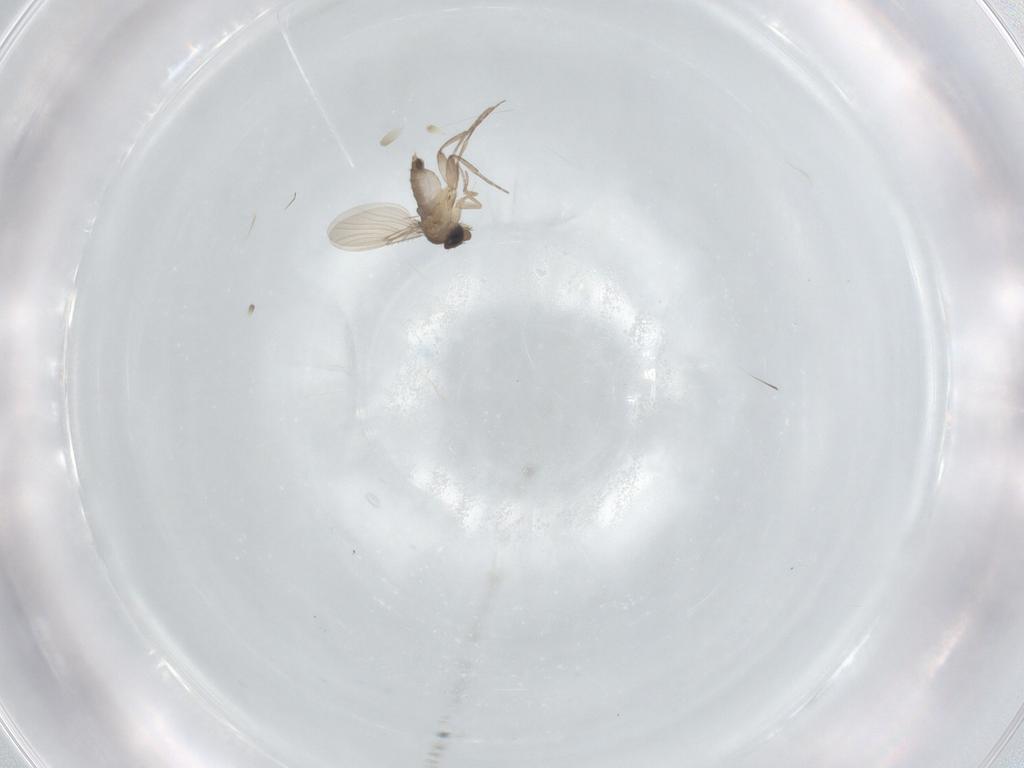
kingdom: Animalia
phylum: Arthropoda
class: Insecta
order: Diptera
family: Phoridae
